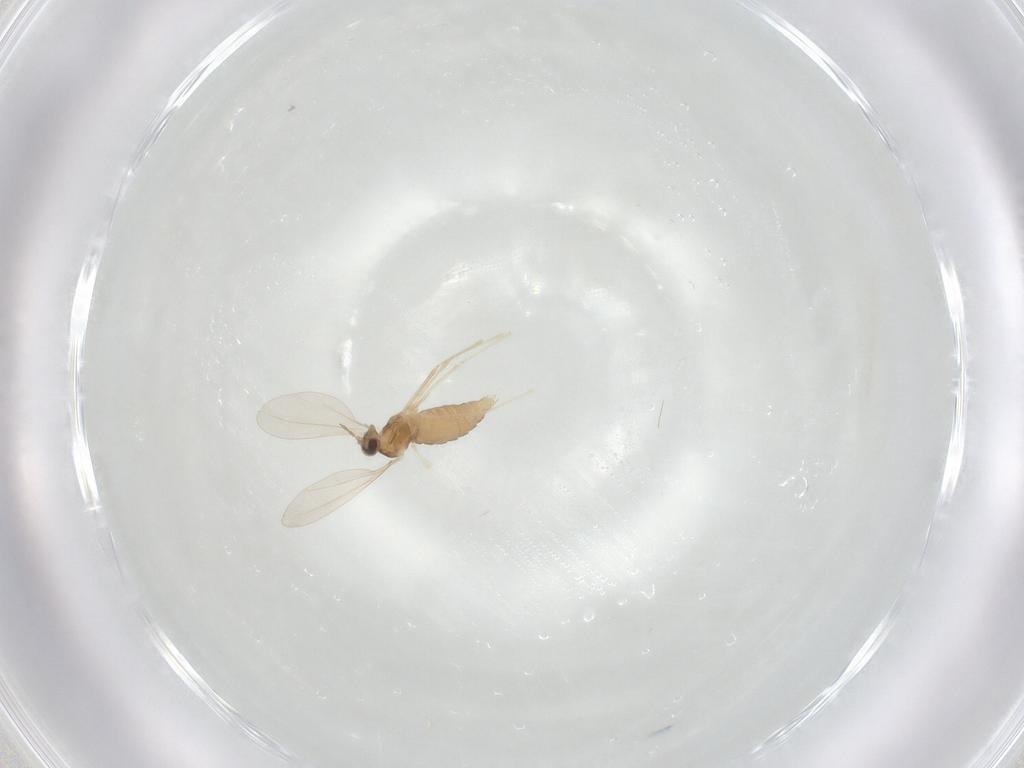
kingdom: Animalia
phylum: Arthropoda
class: Insecta
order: Diptera
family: Cecidomyiidae
